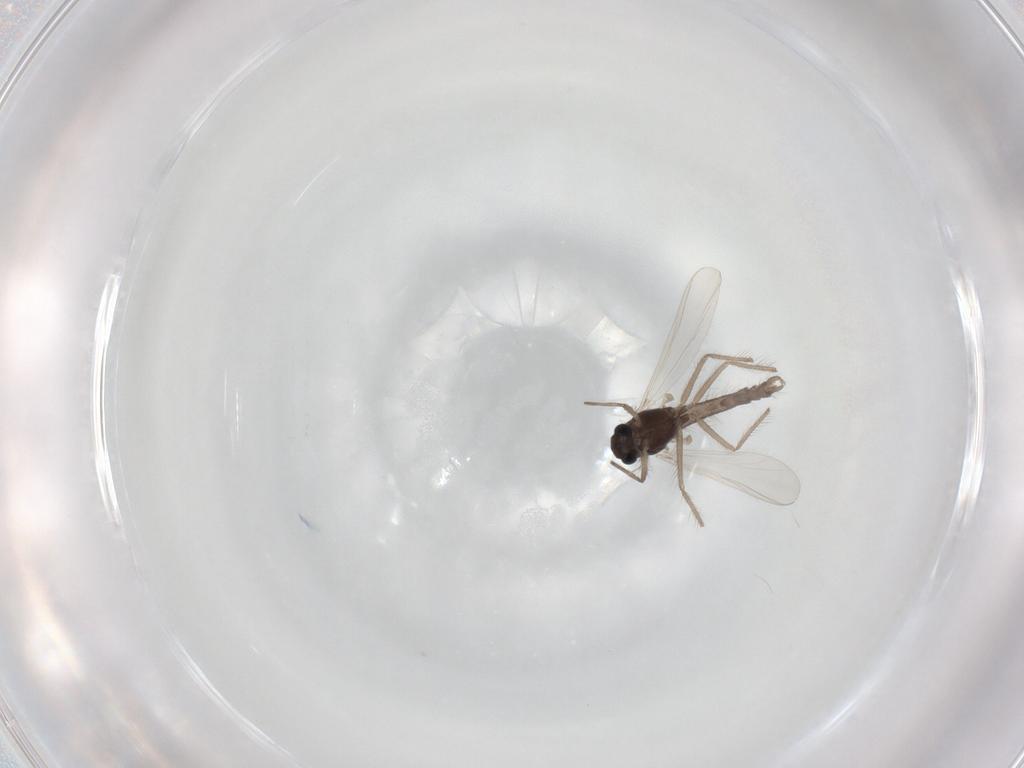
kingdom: Animalia
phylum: Arthropoda
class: Insecta
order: Diptera
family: Chironomidae
